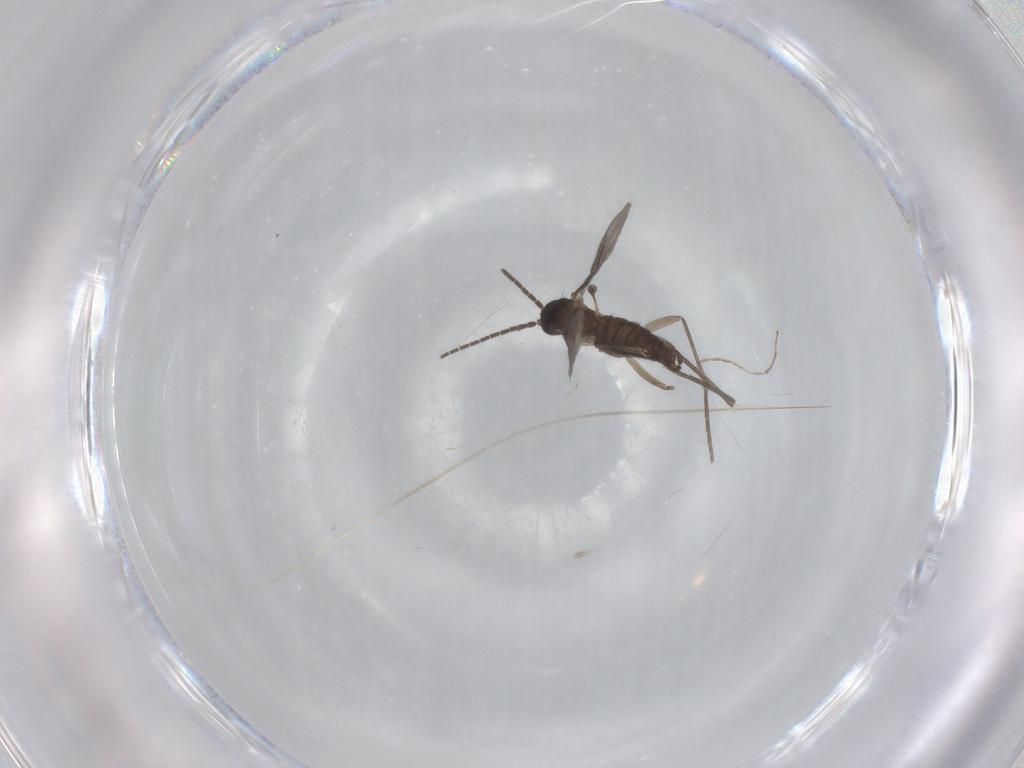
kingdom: Animalia
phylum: Arthropoda
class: Insecta
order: Diptera
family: Sciaridae
